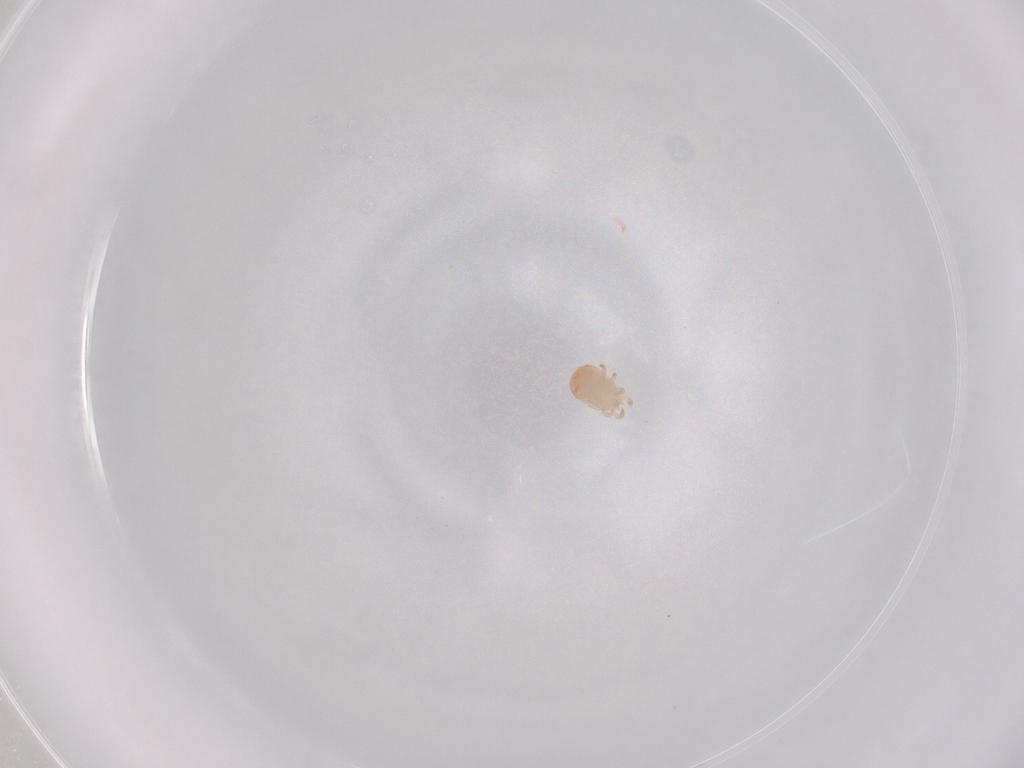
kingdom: Animalia
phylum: Arthropoda
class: Arachnida
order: Mesostigmata
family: Zerconidae
